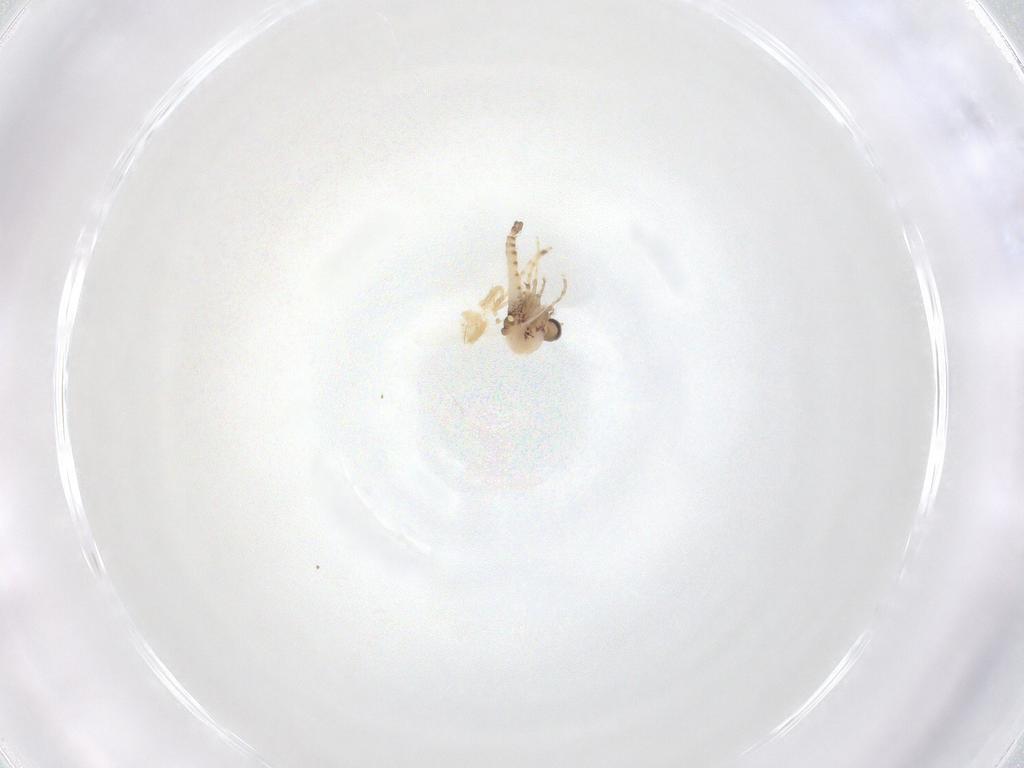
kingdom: Animalia
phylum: Arthropoda
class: Insecta
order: Diptera
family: Ceratopogonidae
